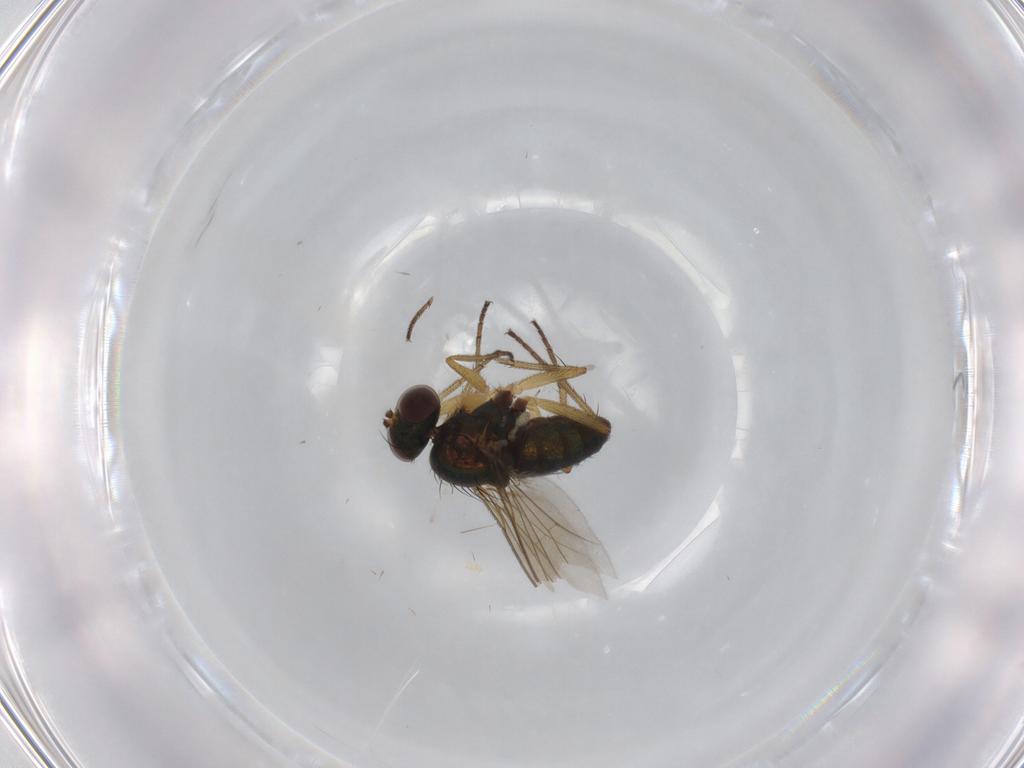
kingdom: Animalia
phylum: Arthropoda
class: Insecta
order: Diptera
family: Dolichopodidae
